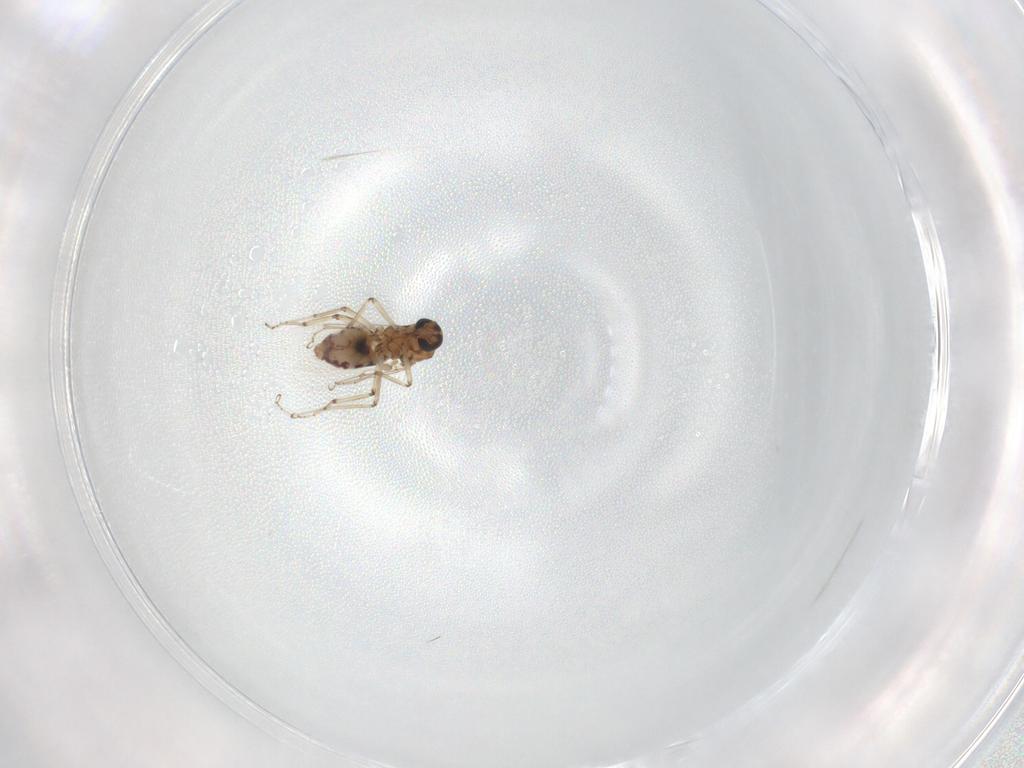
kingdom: Animalia
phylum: Arthropoda
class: Insecta
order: Diptera
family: Ceratopogonidae
